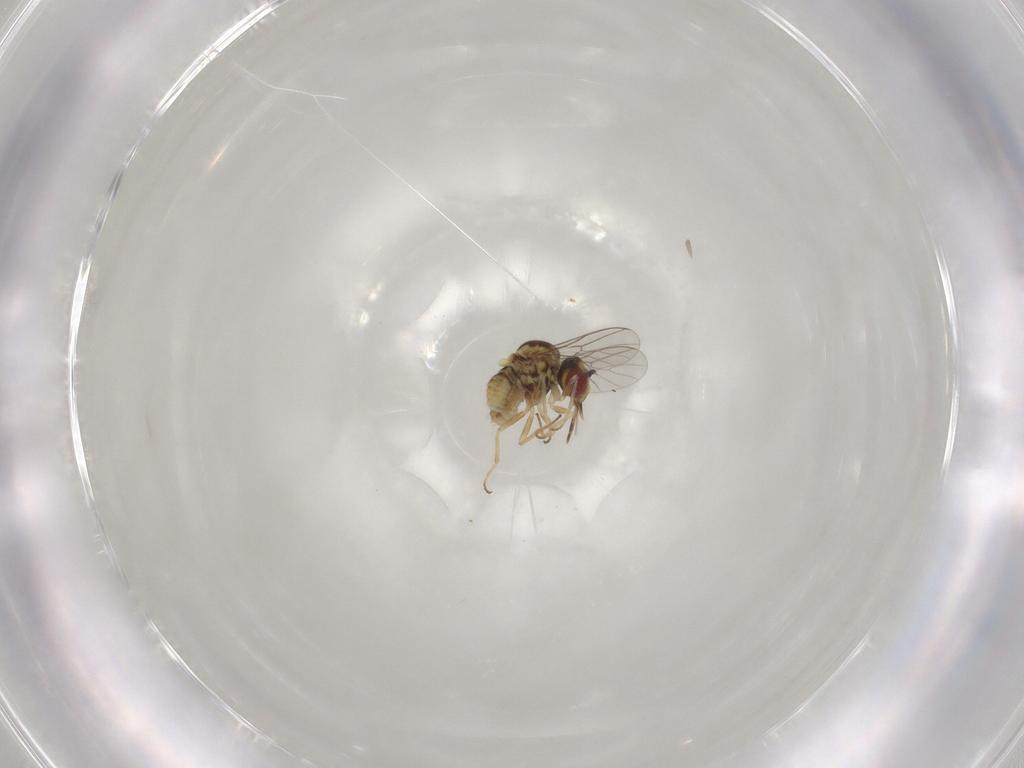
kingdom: Animalia
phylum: Arthropoda
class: Insecta
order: Diptera
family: Mythicomyiidae
